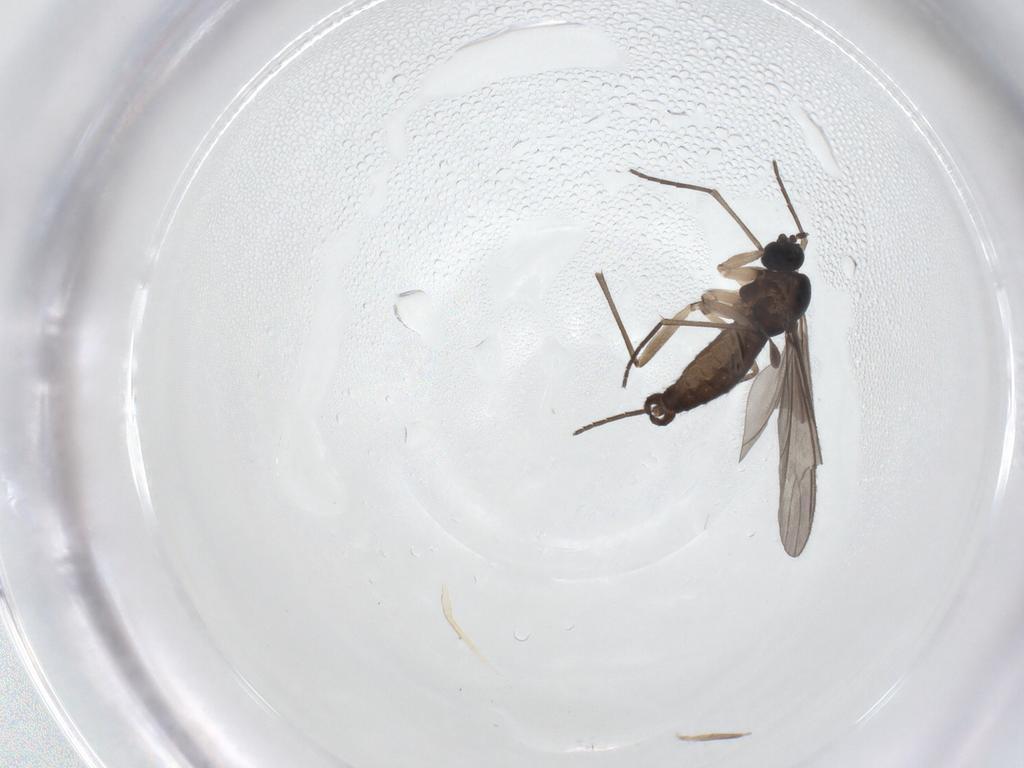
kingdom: Animalia
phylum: Arthropoda
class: Insecta
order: Diptera
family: Sciaridae
